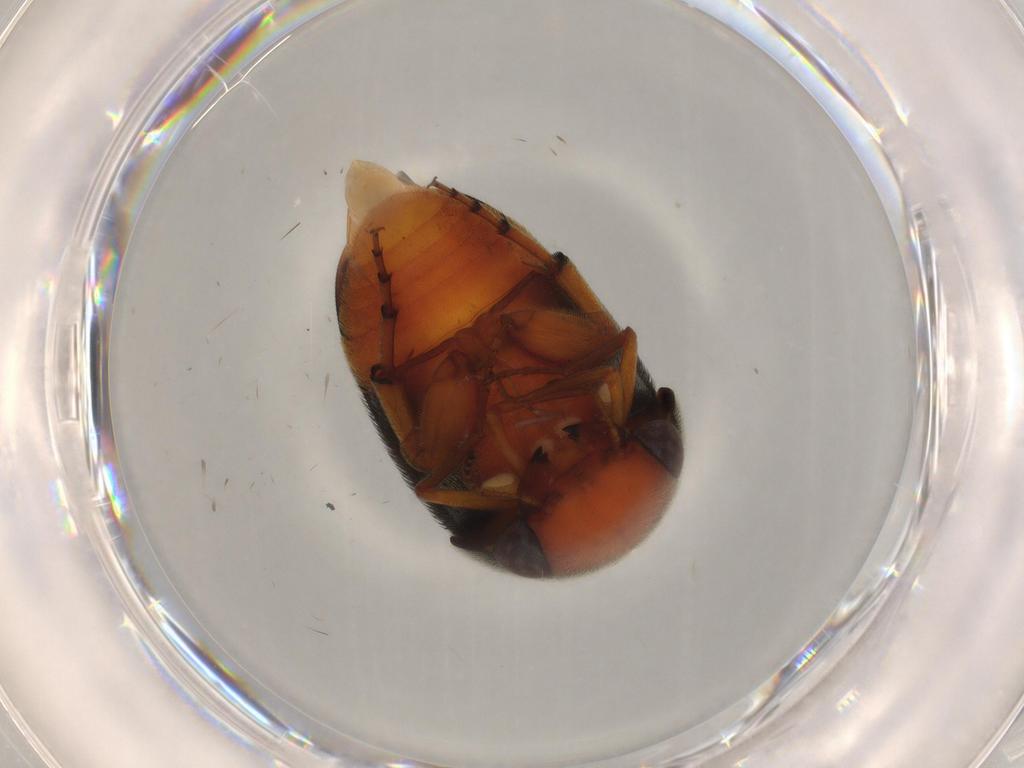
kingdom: Animalia
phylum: Arthropoda
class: Insecta
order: Coleoptera
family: Mordellidae
